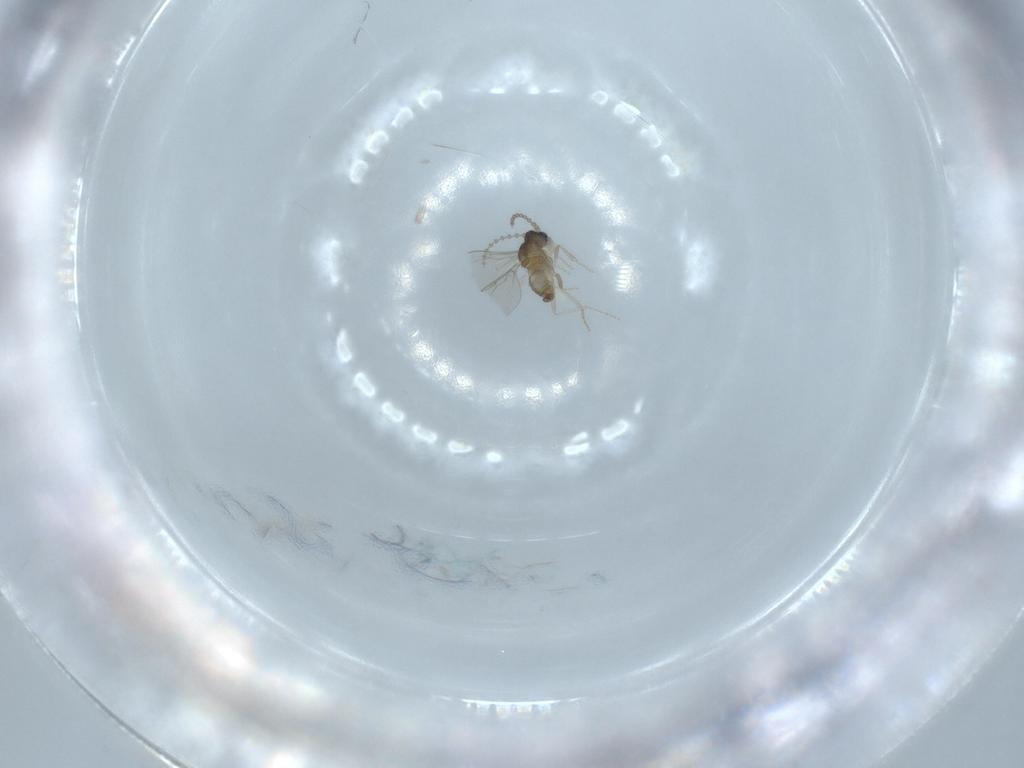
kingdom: Animalia
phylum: Arthropoda
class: Insecta
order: Diptera
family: Cecidomyiidae
